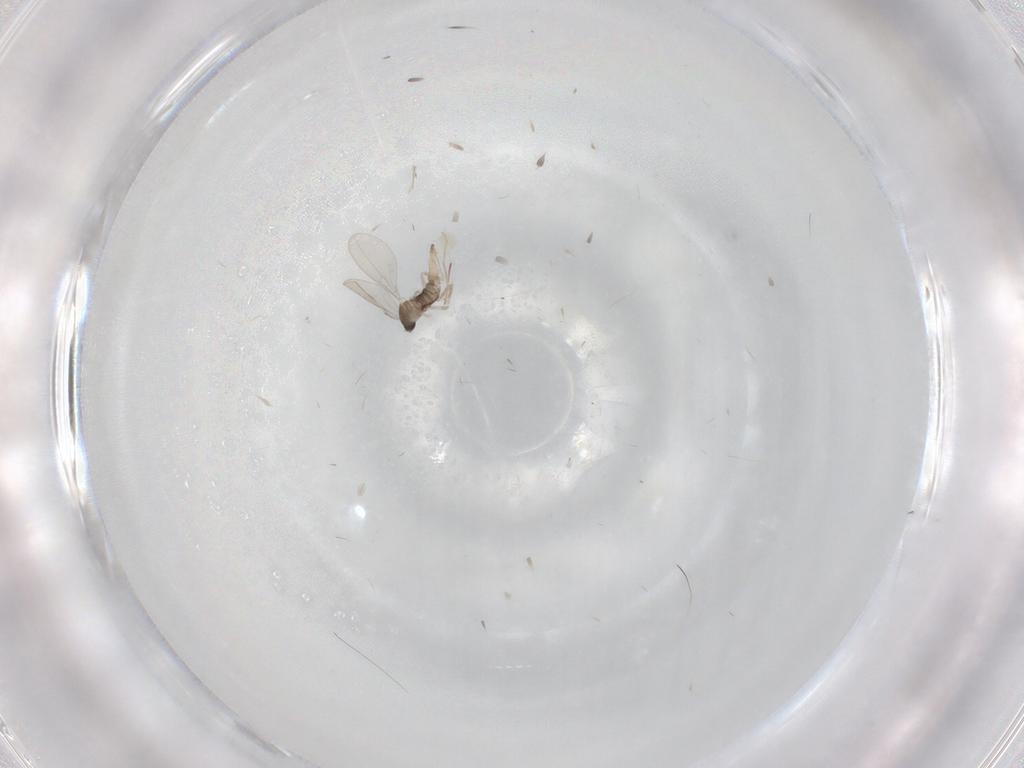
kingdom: Animalia
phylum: Arthropoda
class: Insecta
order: Diptera
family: Cecidomyiidae
